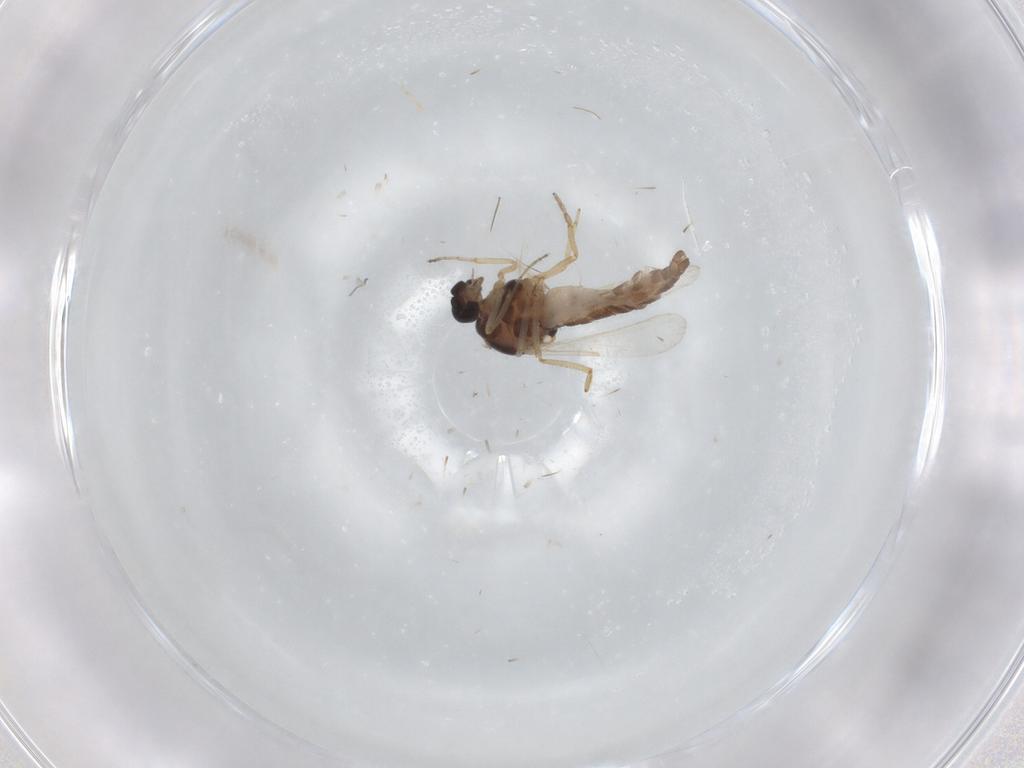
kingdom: Animalia
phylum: Arthropoda
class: Insecta
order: Diptera
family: Ceratopogonidae
